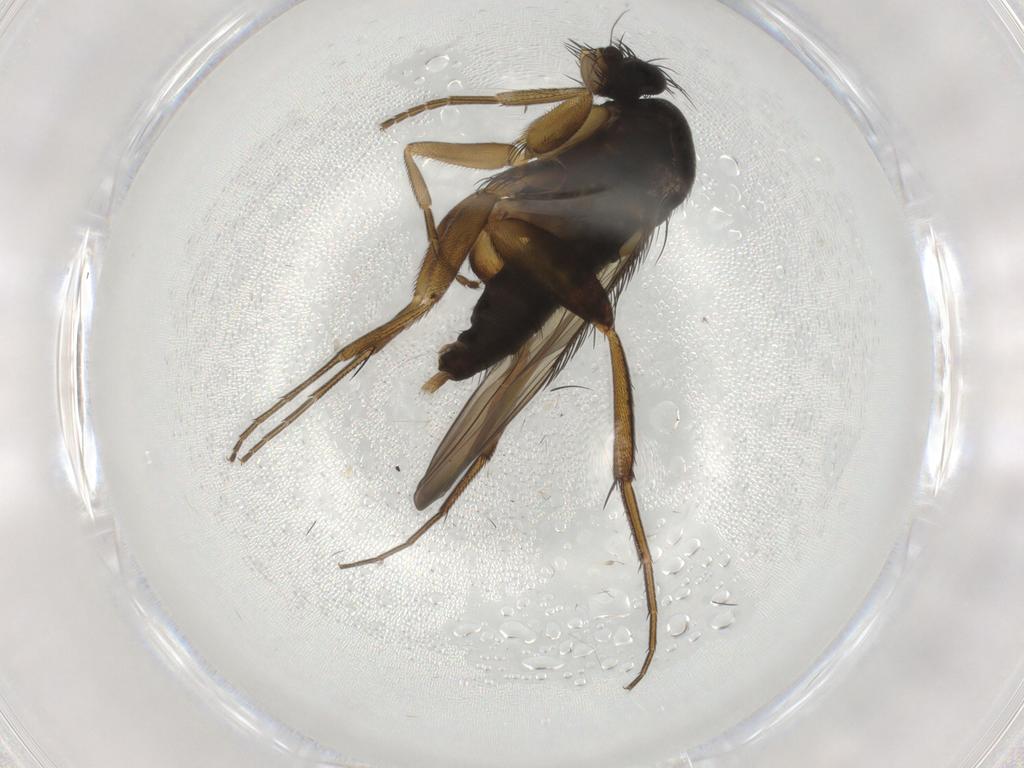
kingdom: Animalia
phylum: Arthropoda
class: Insecta
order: Diptera
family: Phoridae
